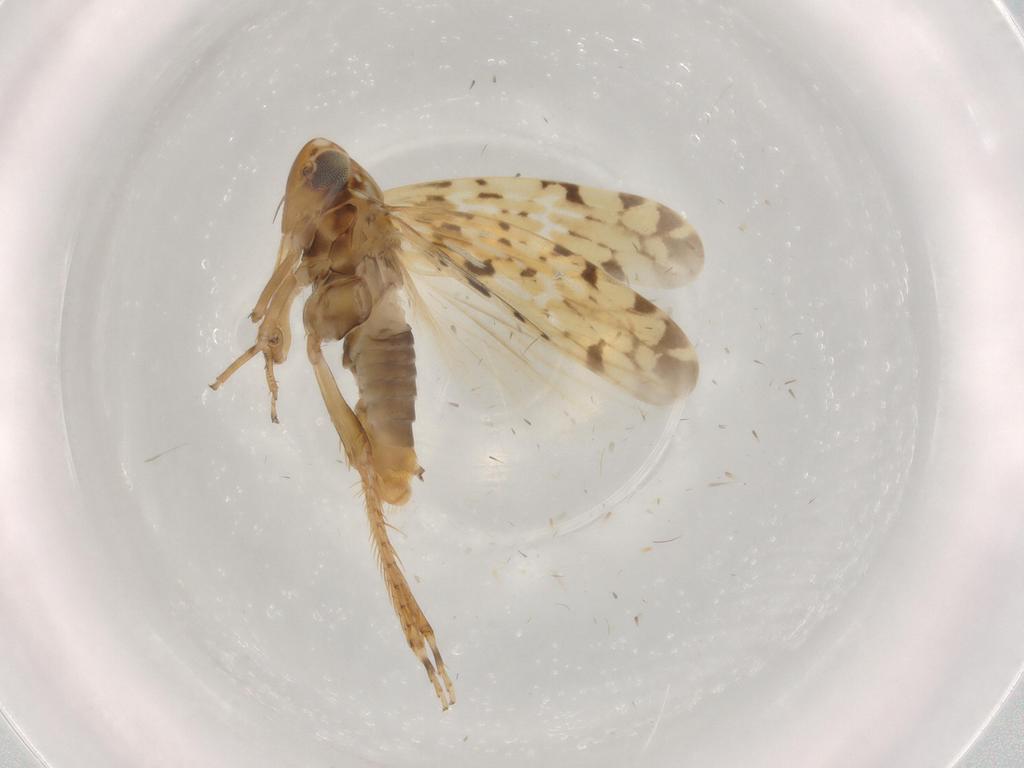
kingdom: Animalia
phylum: Arthropoda
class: Insecta
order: Hemiptera
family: Cicadellidae
